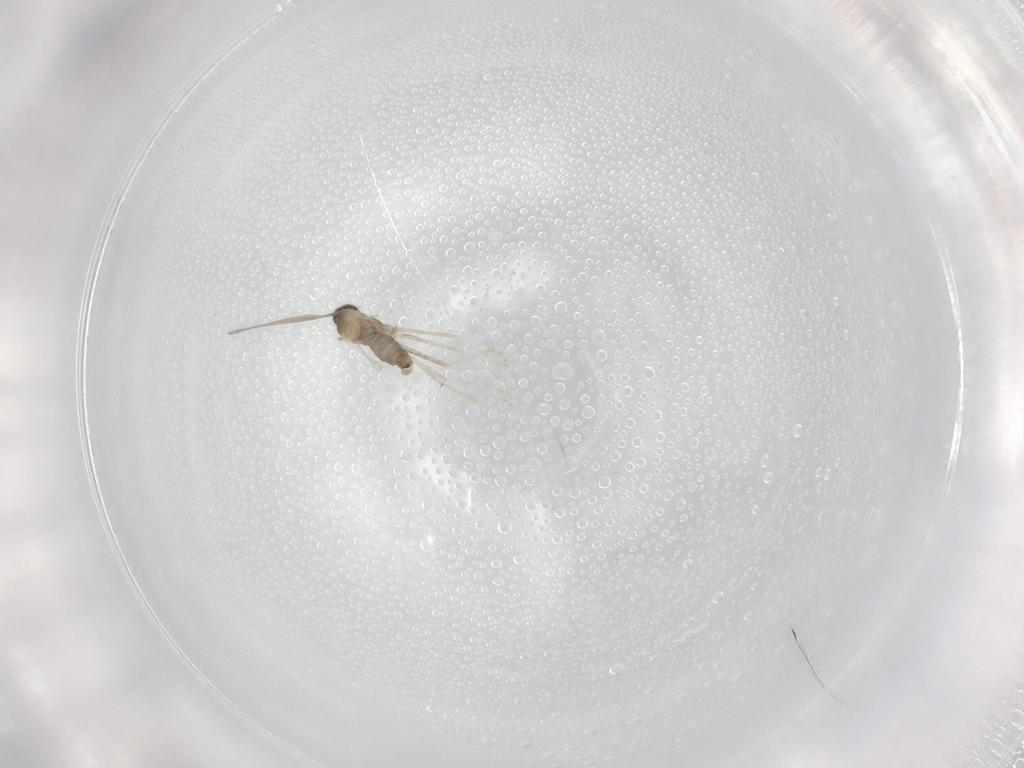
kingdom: Animalia
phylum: Arthropoda
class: Insecta
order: Diptera
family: Cecidomyiidae
